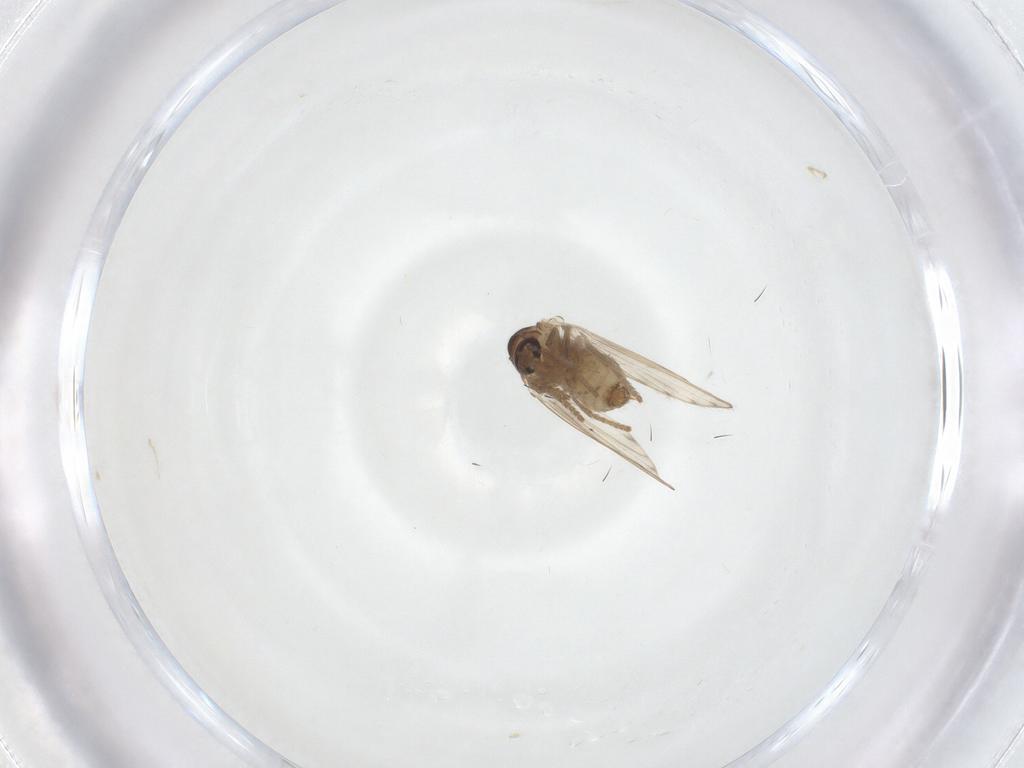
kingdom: Animalia
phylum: Arthropoda
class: Insecta
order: Diptera
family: Psychodidae
